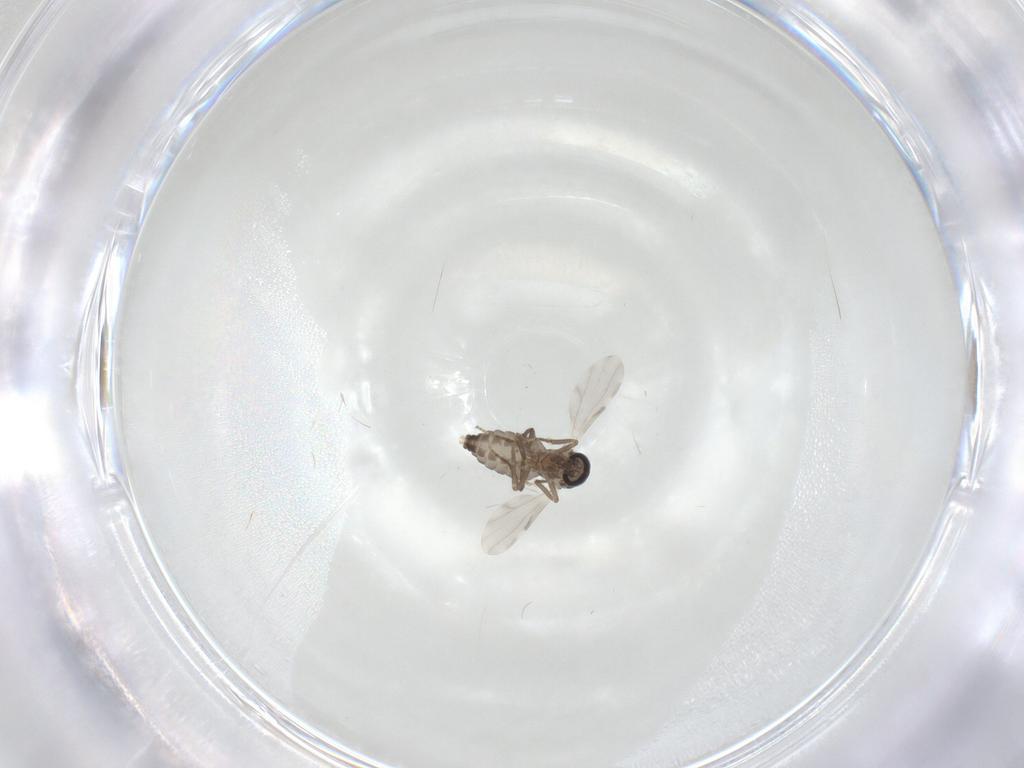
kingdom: Animalia
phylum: Arthropoda
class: Insecta
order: Diptera
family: Ceratopogonidae
